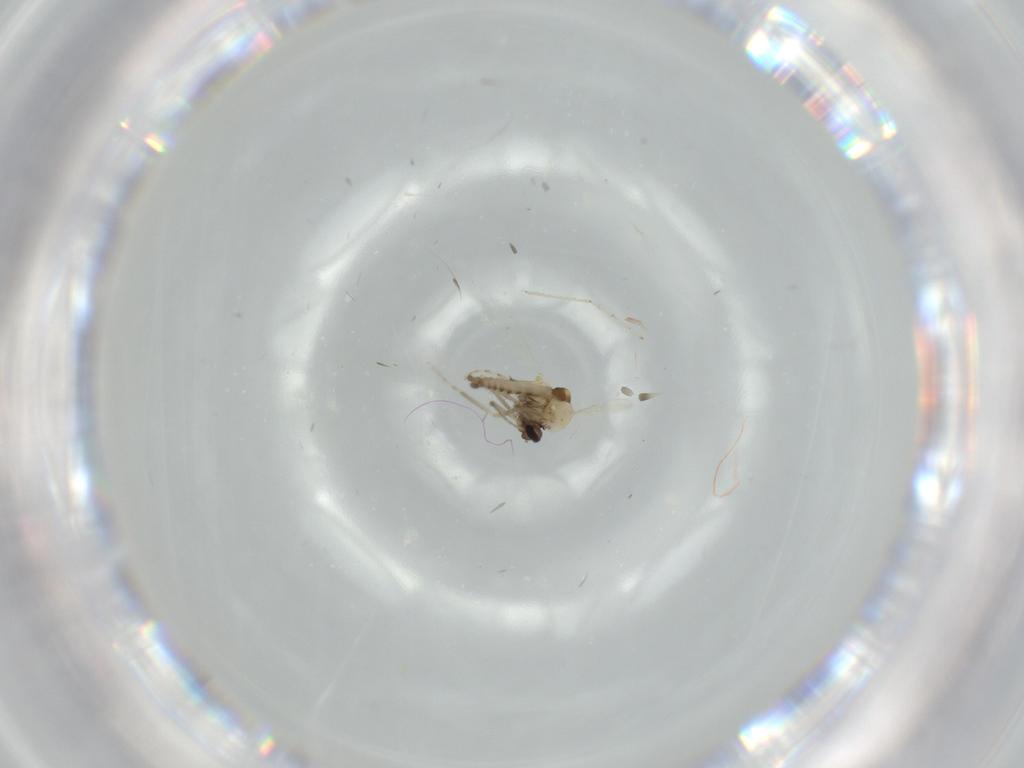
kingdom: Animalia
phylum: Arthropoda
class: Insecta
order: Diptera
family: Ceratopogonidae
